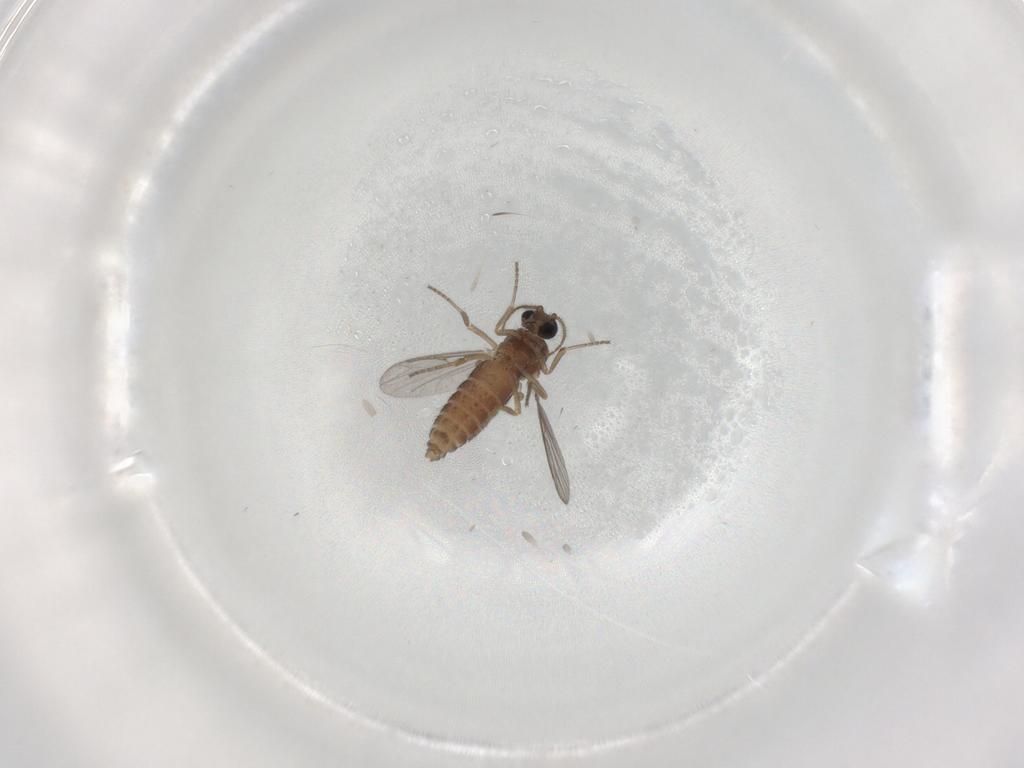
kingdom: Animalia
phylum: Arthropoda
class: Insecta
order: Diptera
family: Ceratopogonidae
